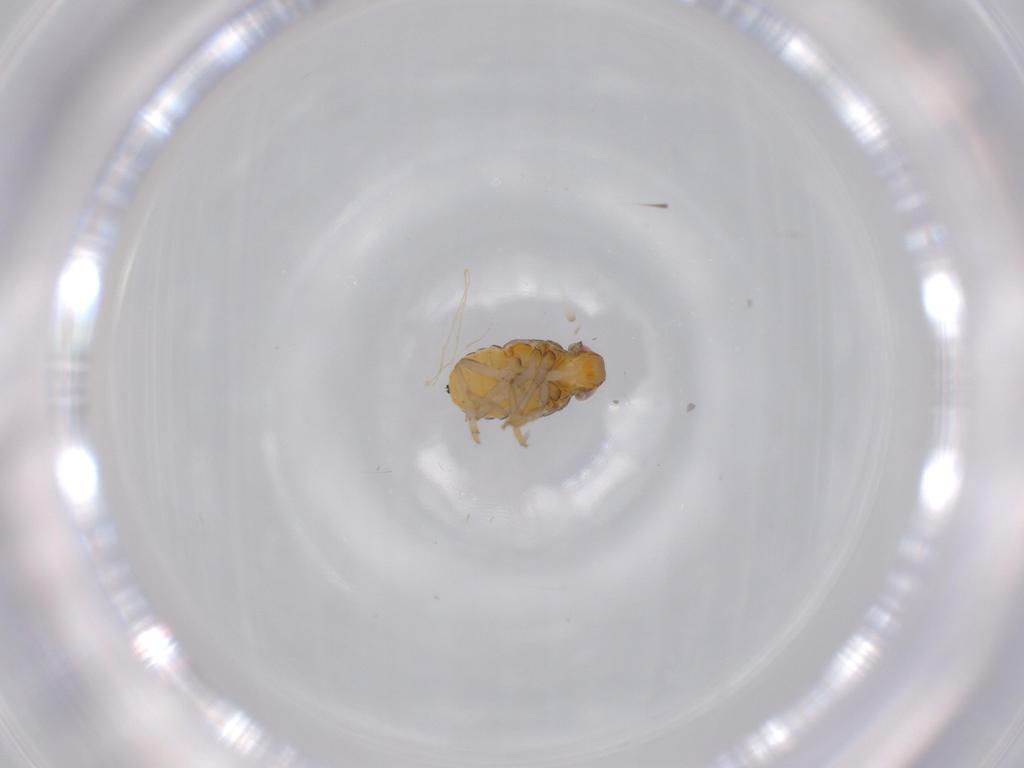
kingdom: Animalia
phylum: Arthropoda
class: Insecta
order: Hemiptera
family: Issidae
